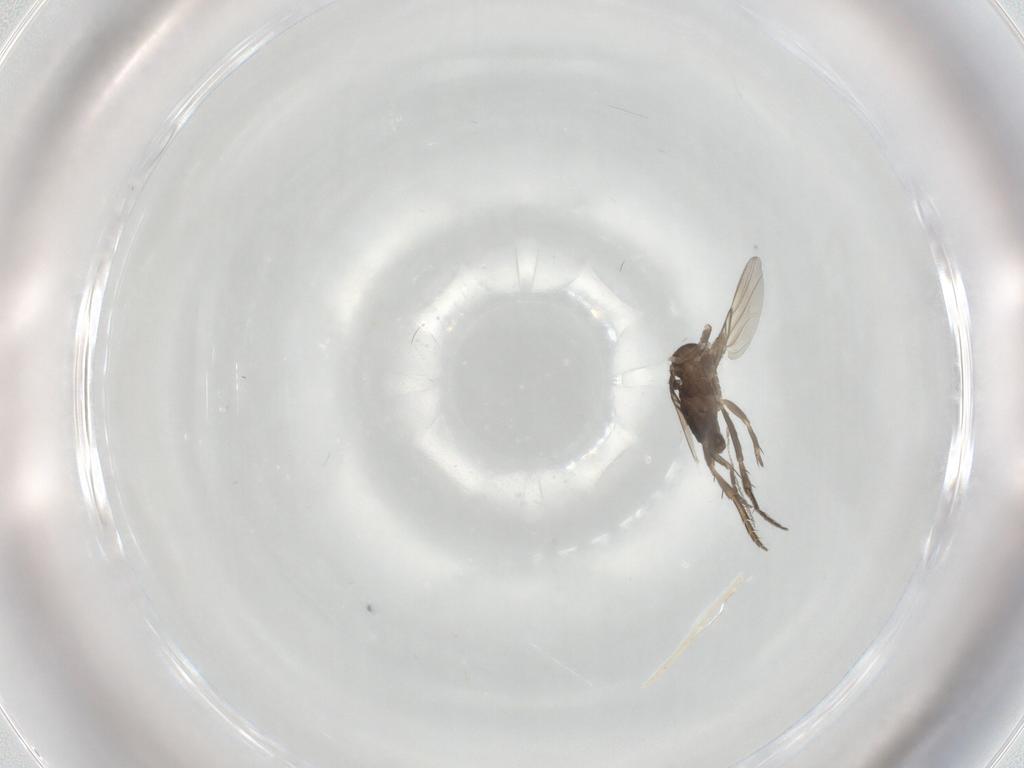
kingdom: Animalia
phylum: Arthropoda
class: Insecta
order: Diptera
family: Phoridae
